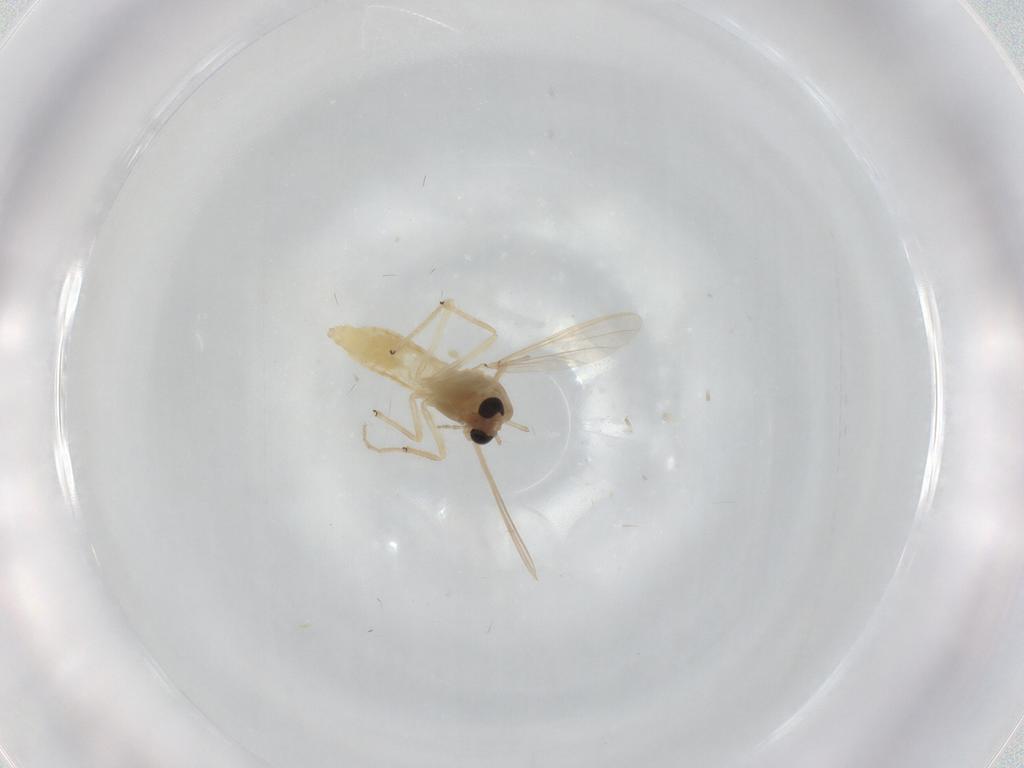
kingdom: Animalia
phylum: Arthropoda
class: Insecta
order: Diptera
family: Chironomidae
